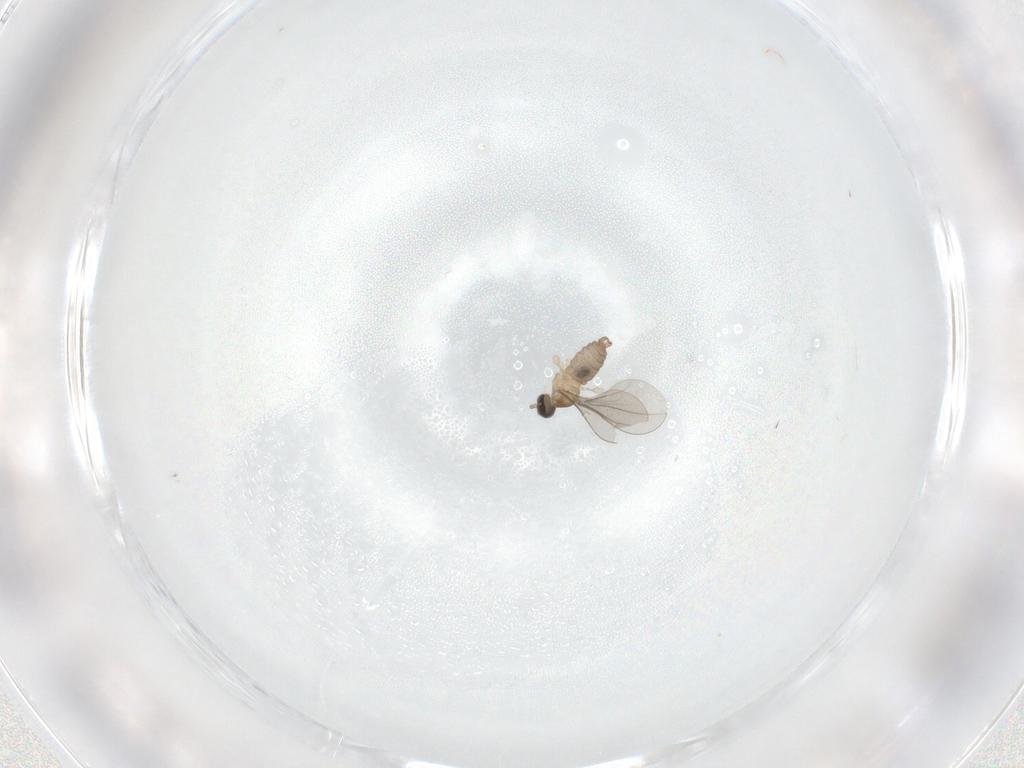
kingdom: Animalia
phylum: Arthropoda
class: Insecta
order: Diptera
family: Cecidomyiidae
